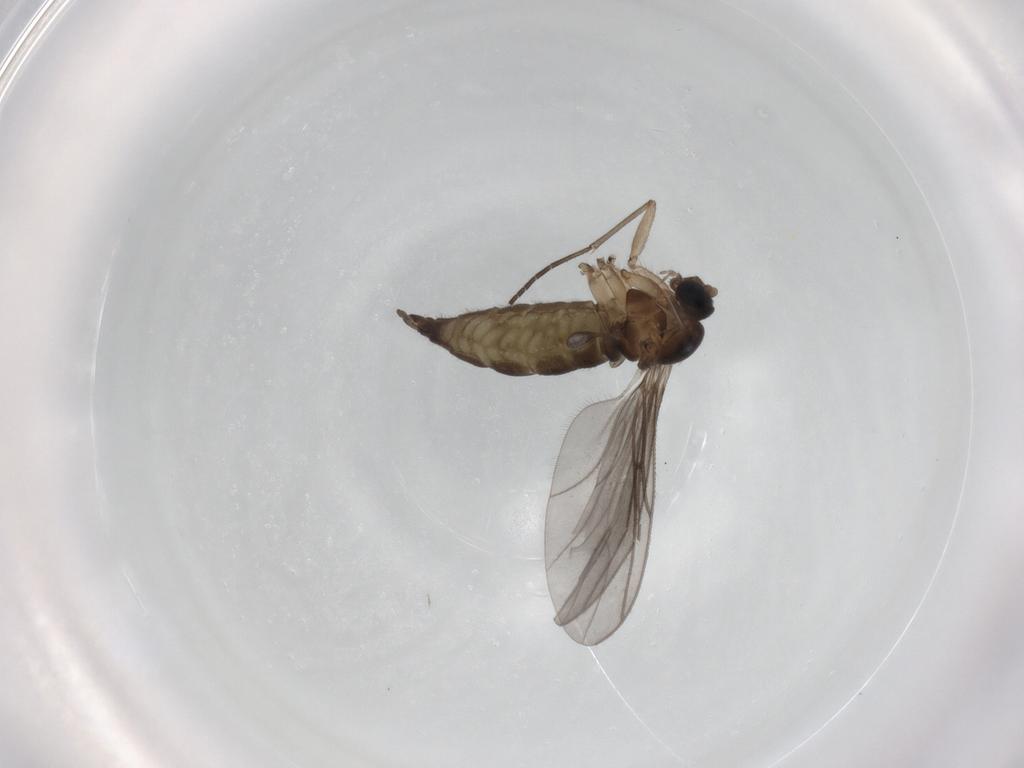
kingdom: Animalia
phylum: Arthropoda
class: Insecta
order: Diptera
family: Psychodidae
